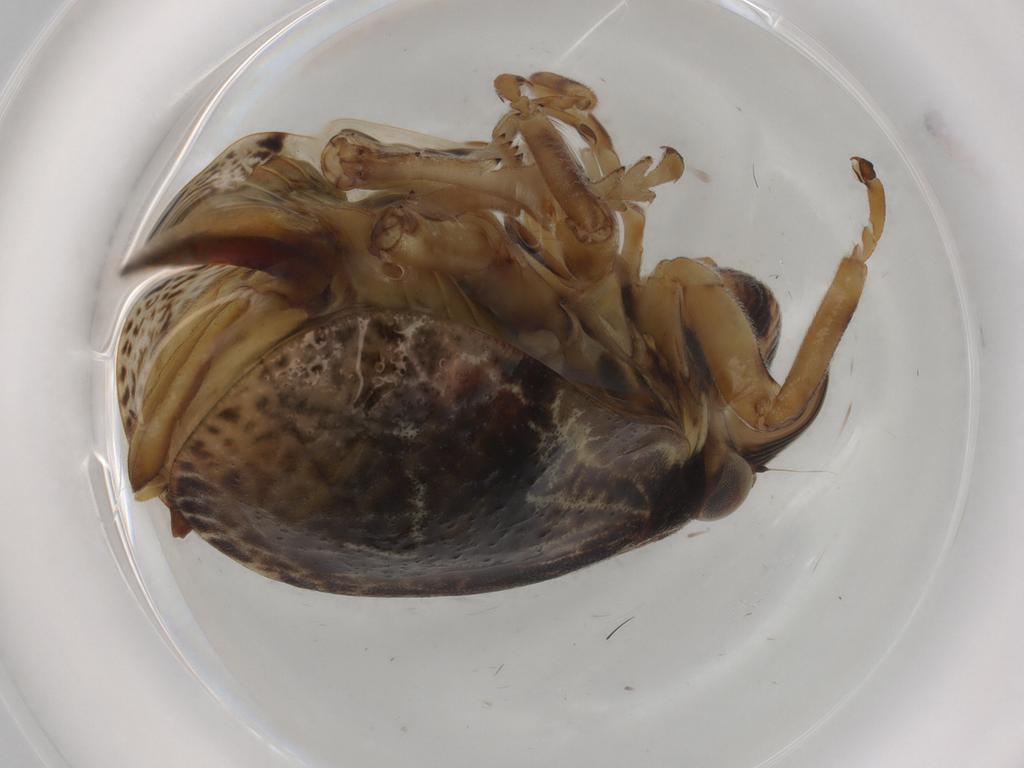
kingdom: Animalia
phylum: Arthropoda
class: Insecta
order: Hemiptera
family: Aphrophoridae
